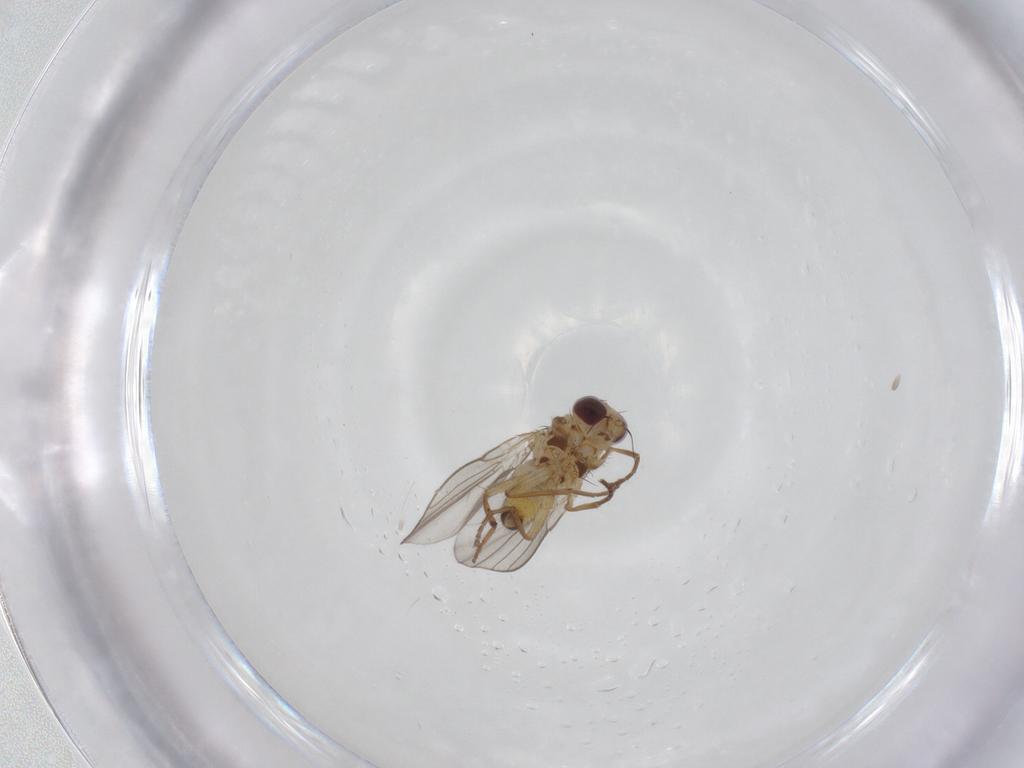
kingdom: Animalia
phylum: Arthropoda
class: Insecta
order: Diptera
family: Agromyzidae
